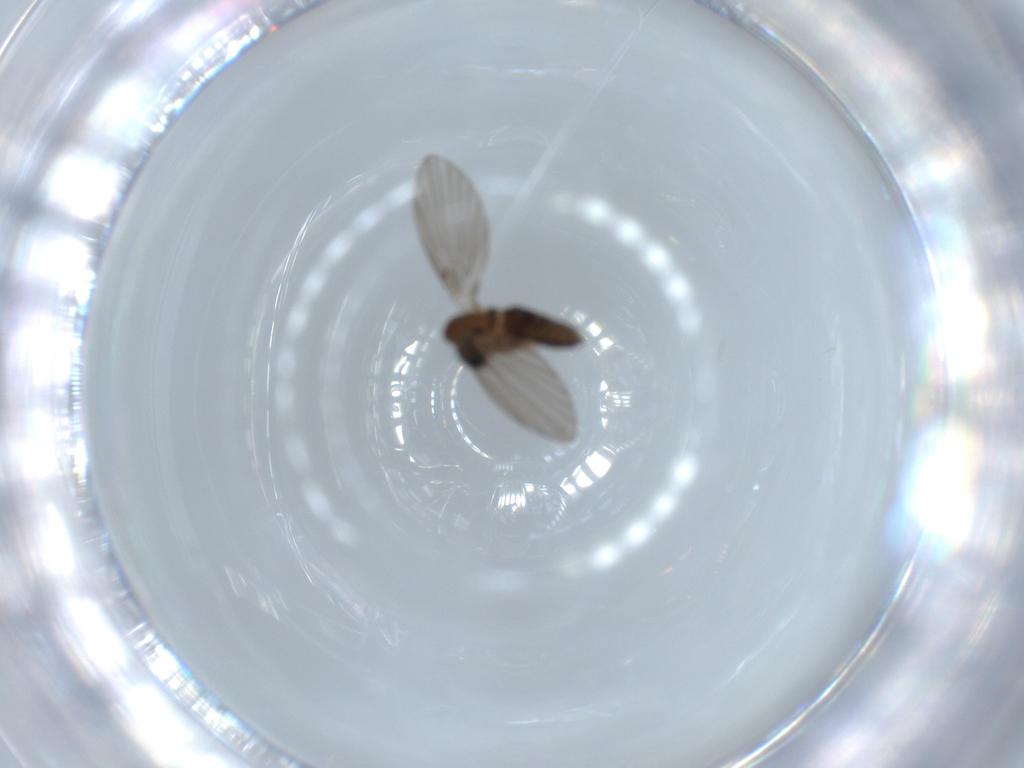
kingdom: Animalia
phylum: Arthropoda
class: Insecta
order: Diptera
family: Psychodidae
